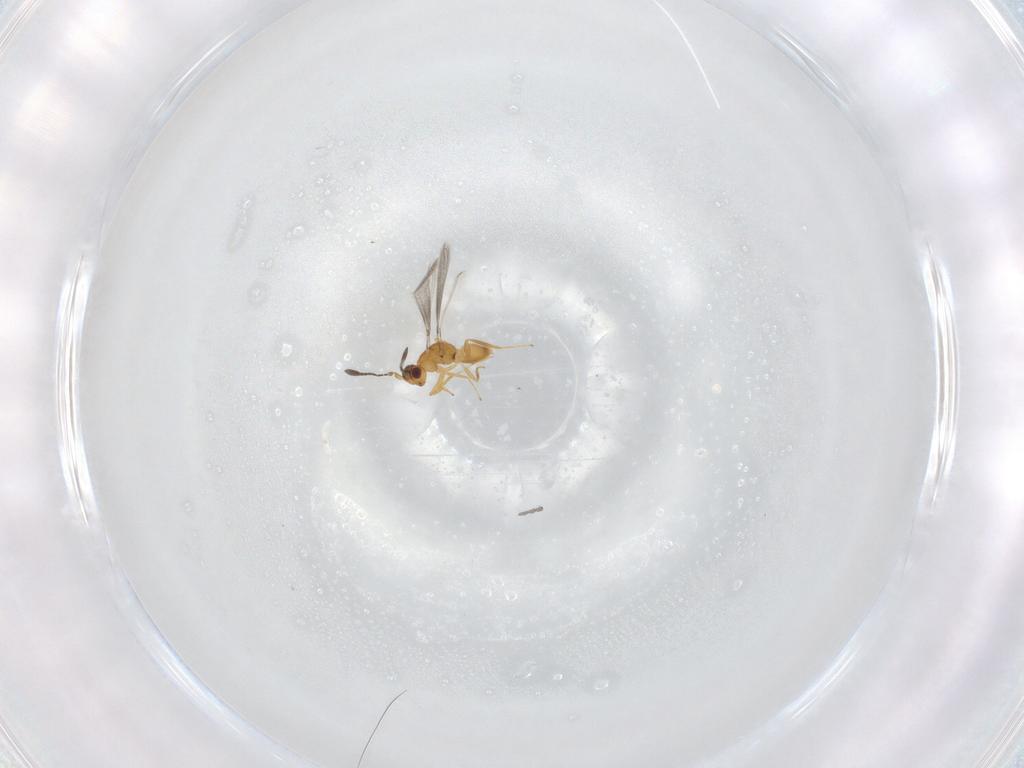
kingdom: Animalia
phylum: Arthropoda
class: Insecta
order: Hymenoptera
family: Mymaridae
